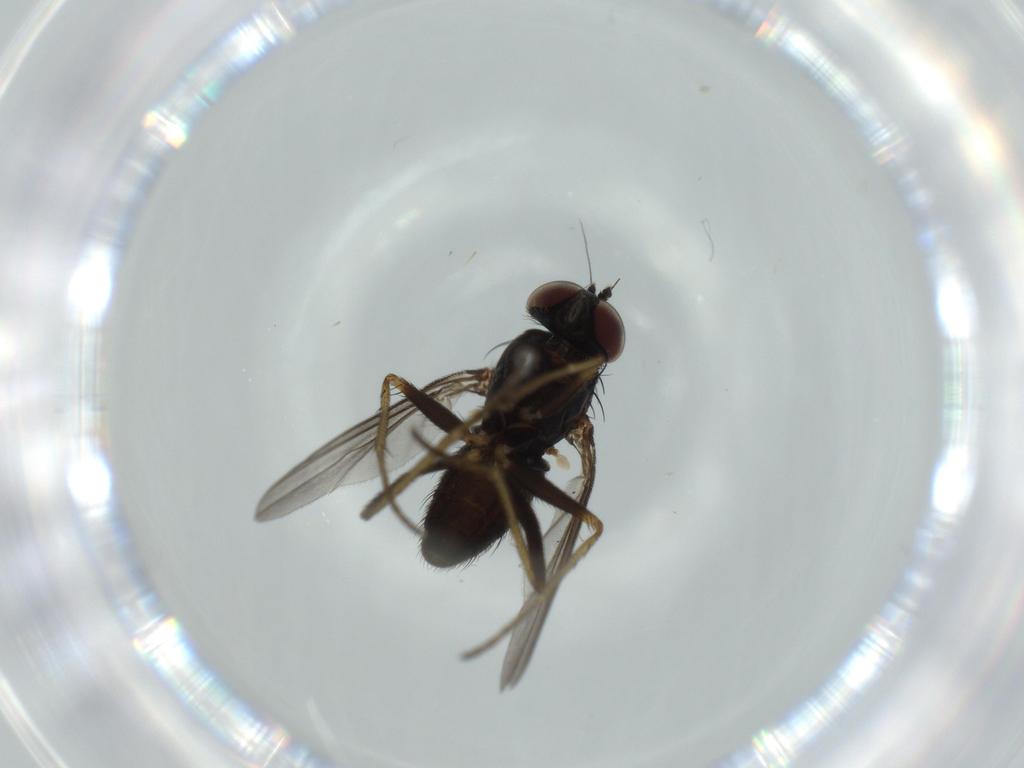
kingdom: Animalia
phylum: Arthropoda
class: Insecta
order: Diptera
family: Dolichopodidae
